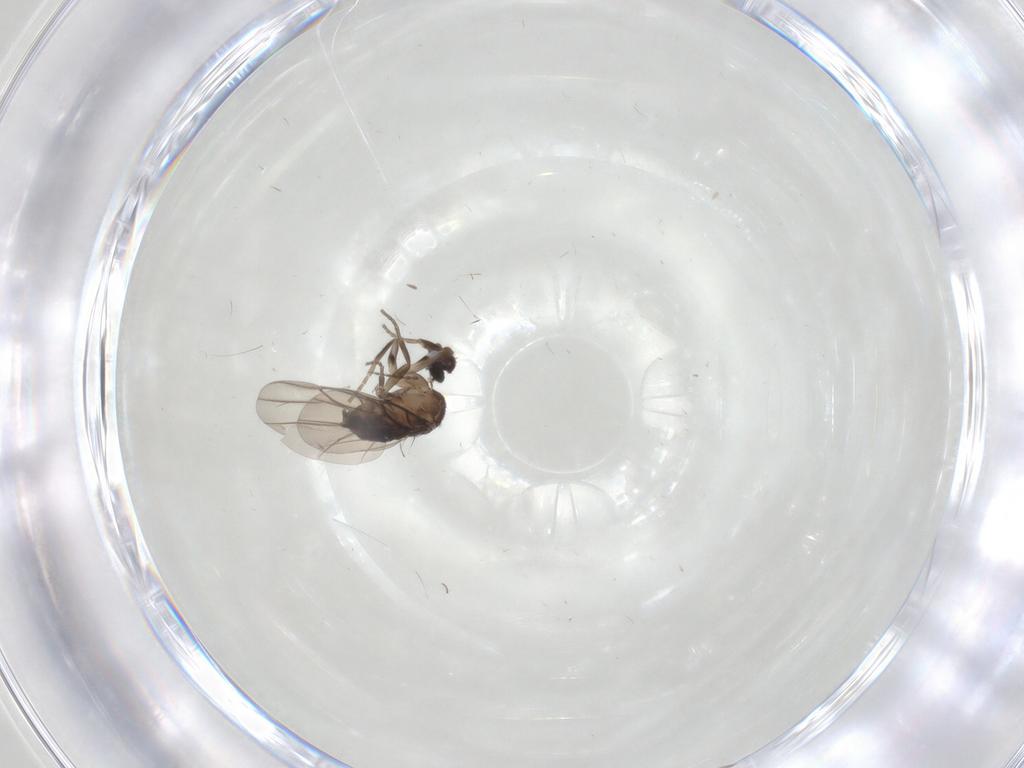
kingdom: Animalia
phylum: Arthropoda
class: Insecta
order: Diptera
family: Phoridae
